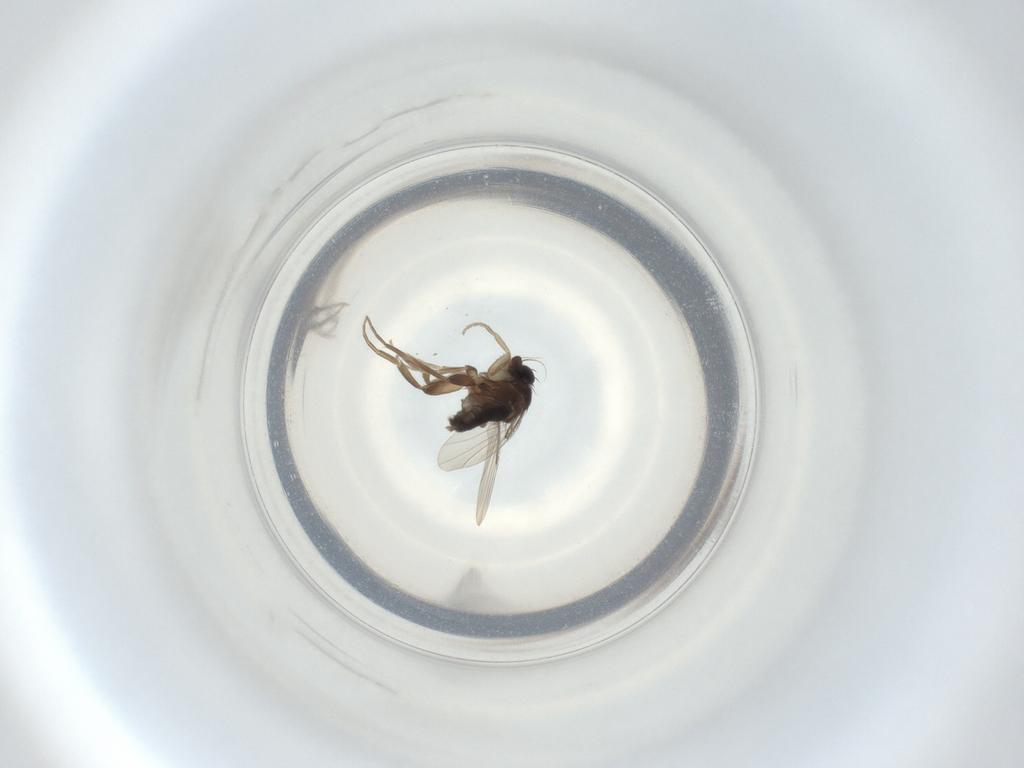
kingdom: Animalia
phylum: Arthropoda
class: Insecta
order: Diptera
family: Phoridae
